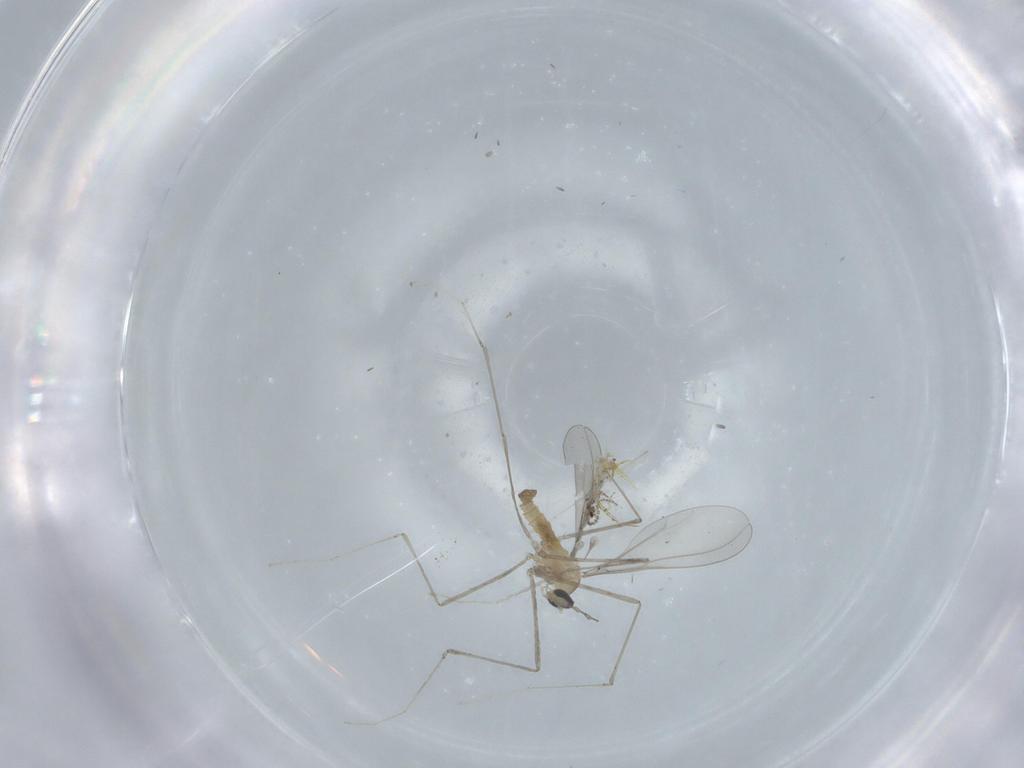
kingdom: Animalia
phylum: Arthropoda
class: Insecta
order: Diptera
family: Cecidomyiidae
